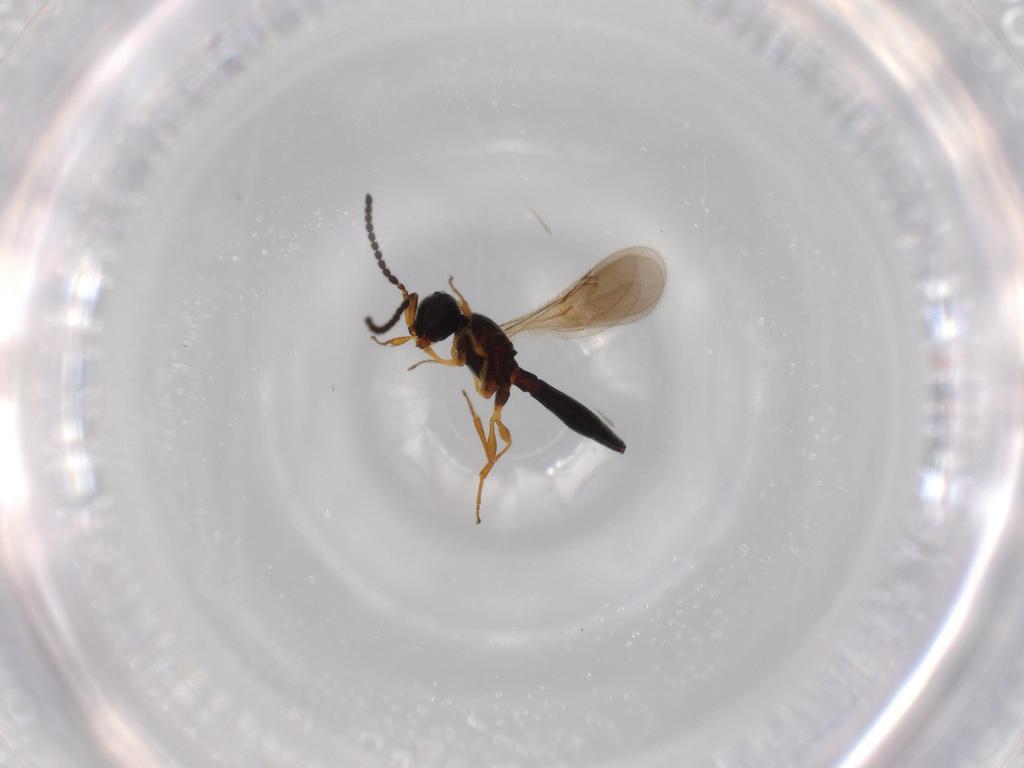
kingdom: Animalia
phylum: Arthropoda
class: Insecta
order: Hymenoptera
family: Scelionidae
